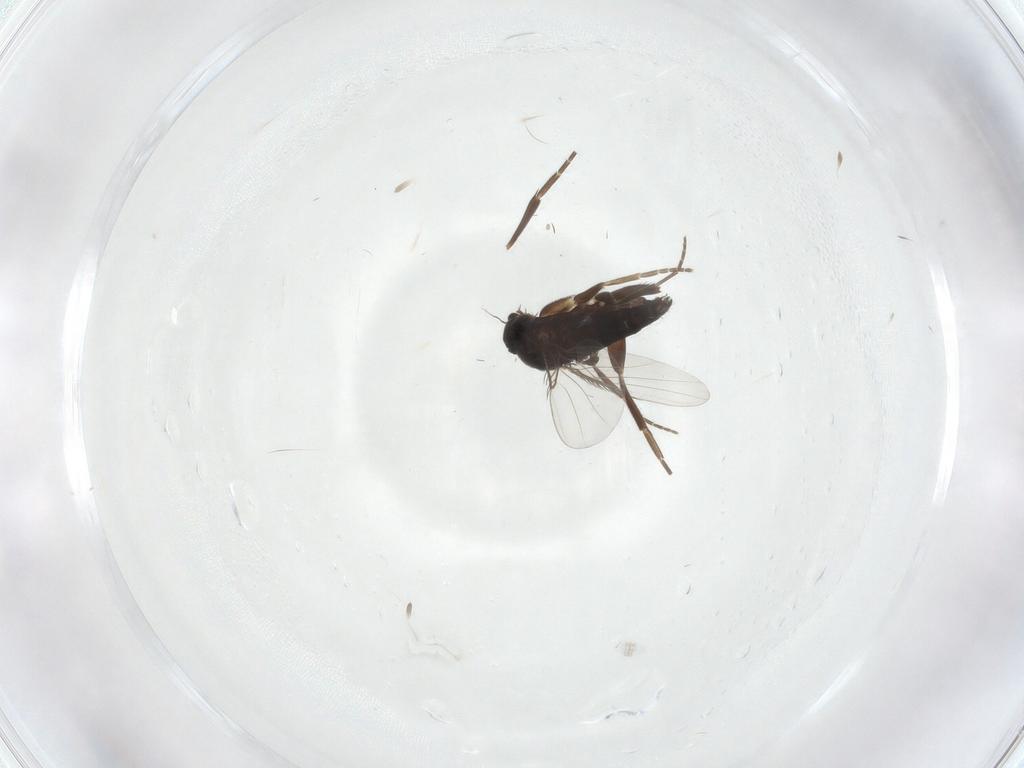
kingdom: Animalia
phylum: Arthropoda
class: Insecta
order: Diptera
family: Phoridae
